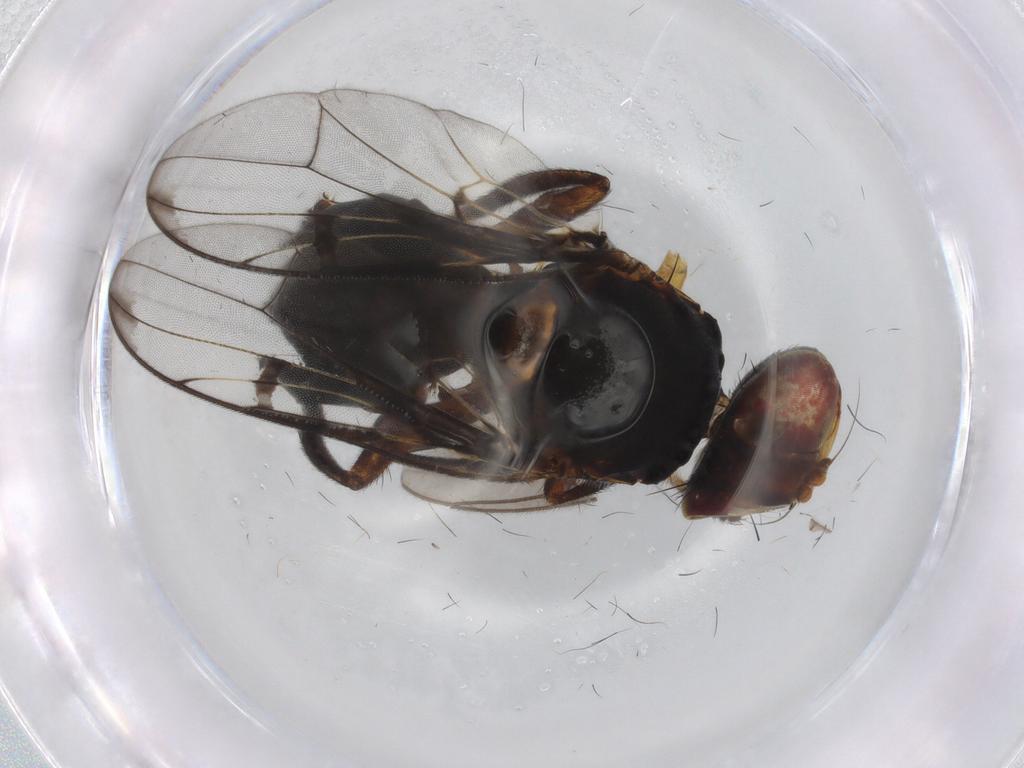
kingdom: Animalia
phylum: Arthropoda
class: Insecta
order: Diptera
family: Platystomatidae
